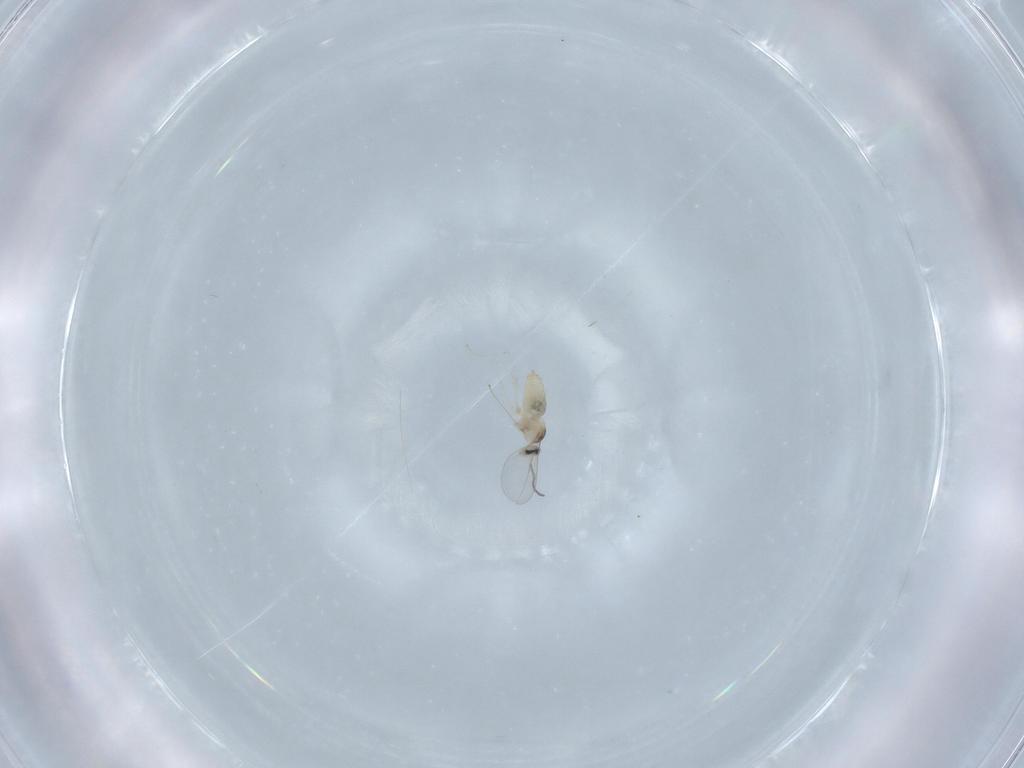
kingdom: Animalia
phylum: Arthropoda
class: Insecta
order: Diptera
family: Cecidomyiidae
